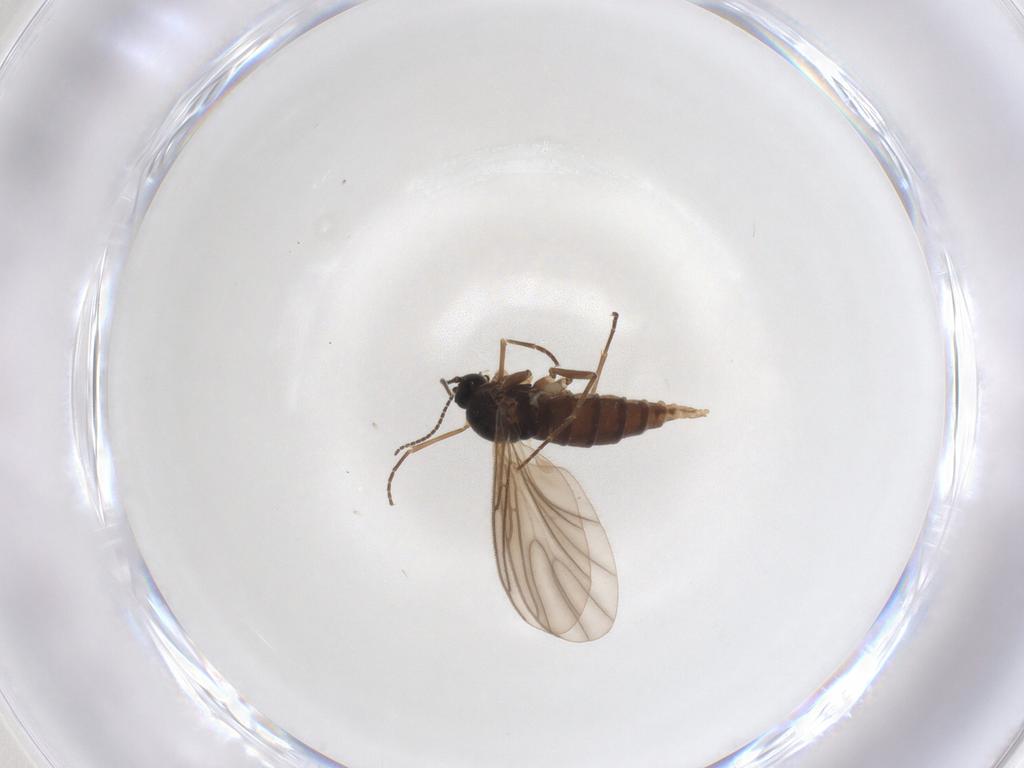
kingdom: Animalia
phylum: Arthropoda
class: Insecta
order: Diptera
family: Sciaridae
